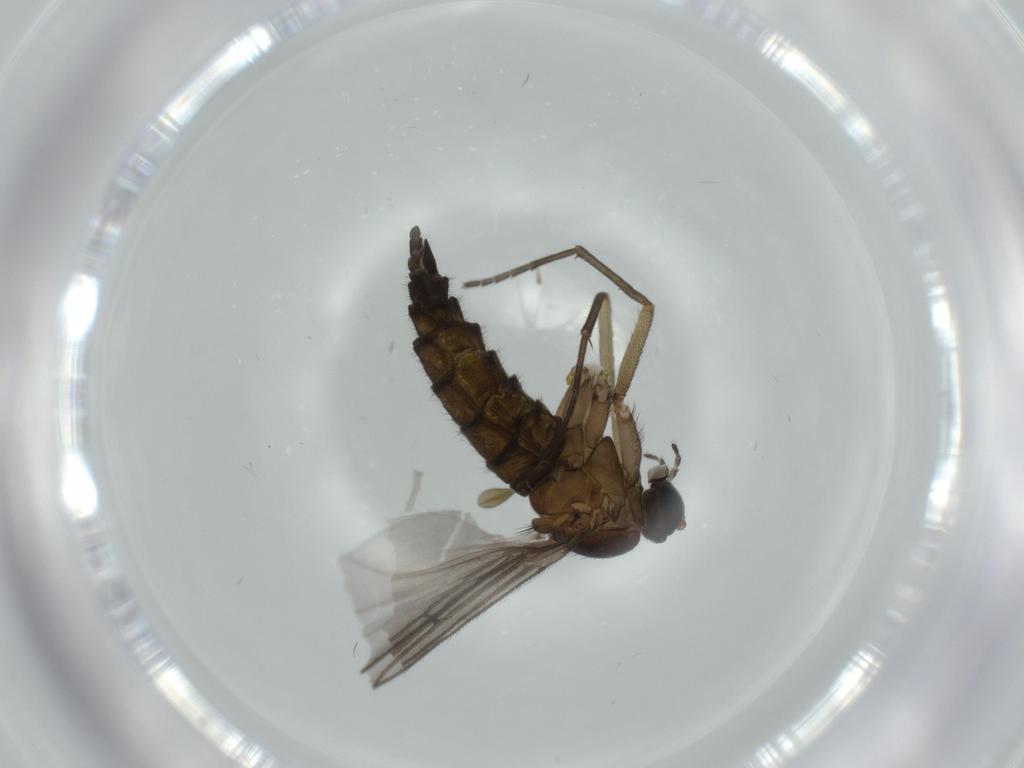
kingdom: Animalia
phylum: Arthropoda
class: Insecta
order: Diptera
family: Sciaridae
